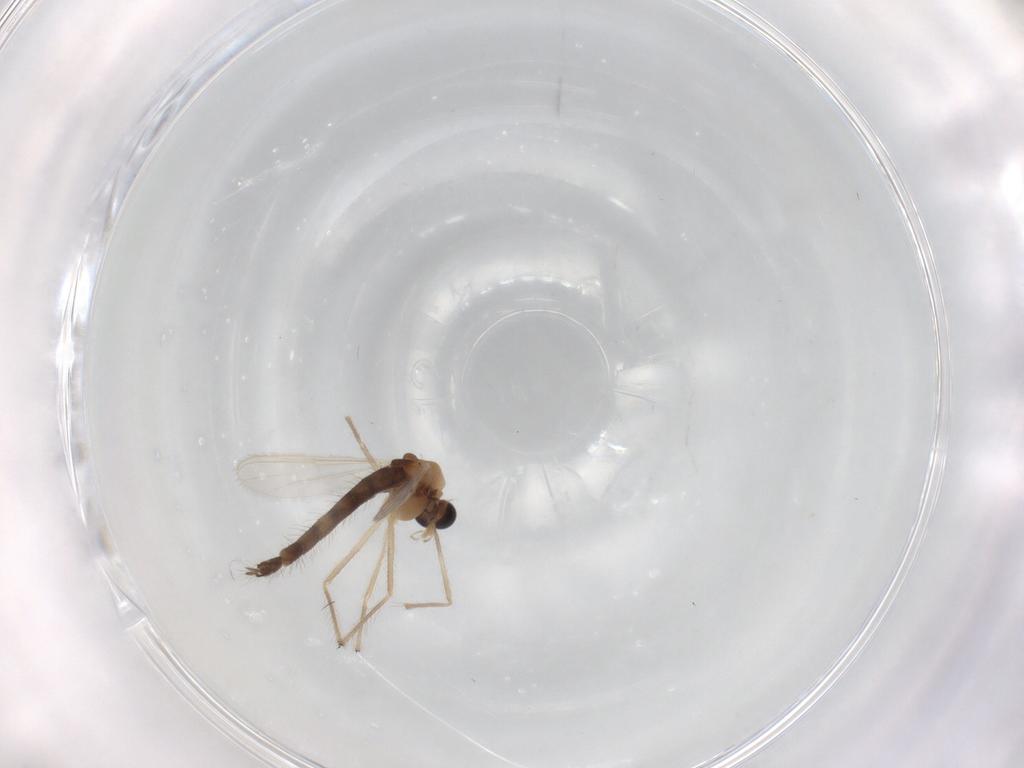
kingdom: Animalia
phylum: Arthropoda
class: Insecta
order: Diptera
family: Chironomidae
